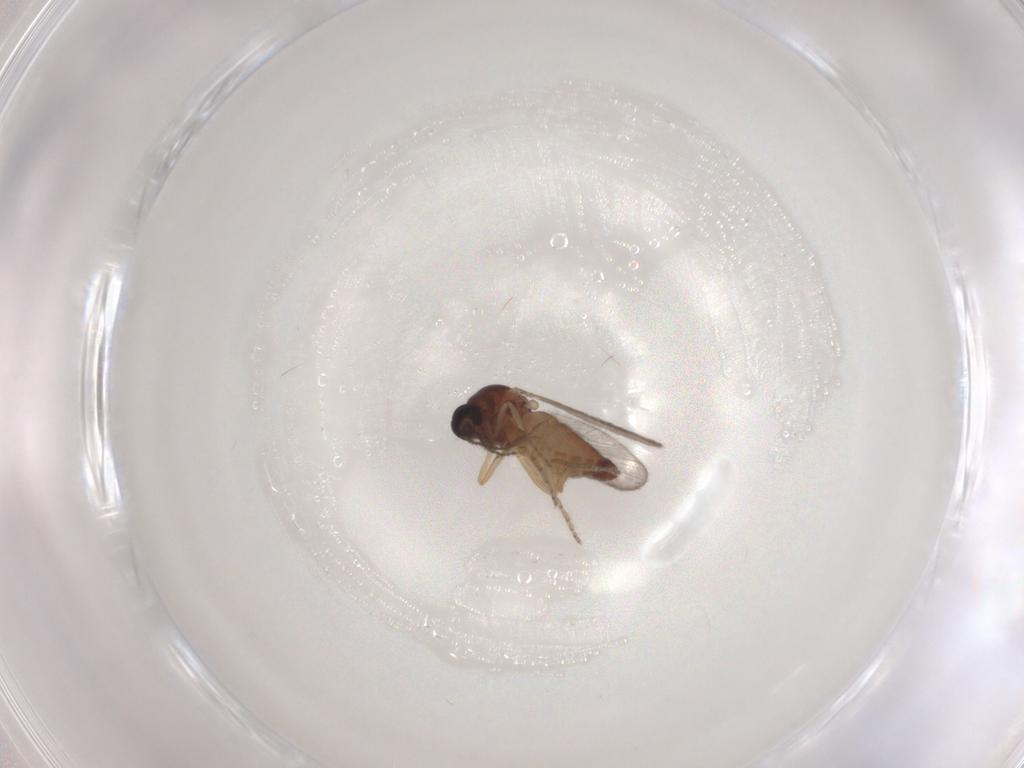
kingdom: Animalia
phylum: Arthropoda
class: Insecta
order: Diptera
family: Ceratopogonidae
